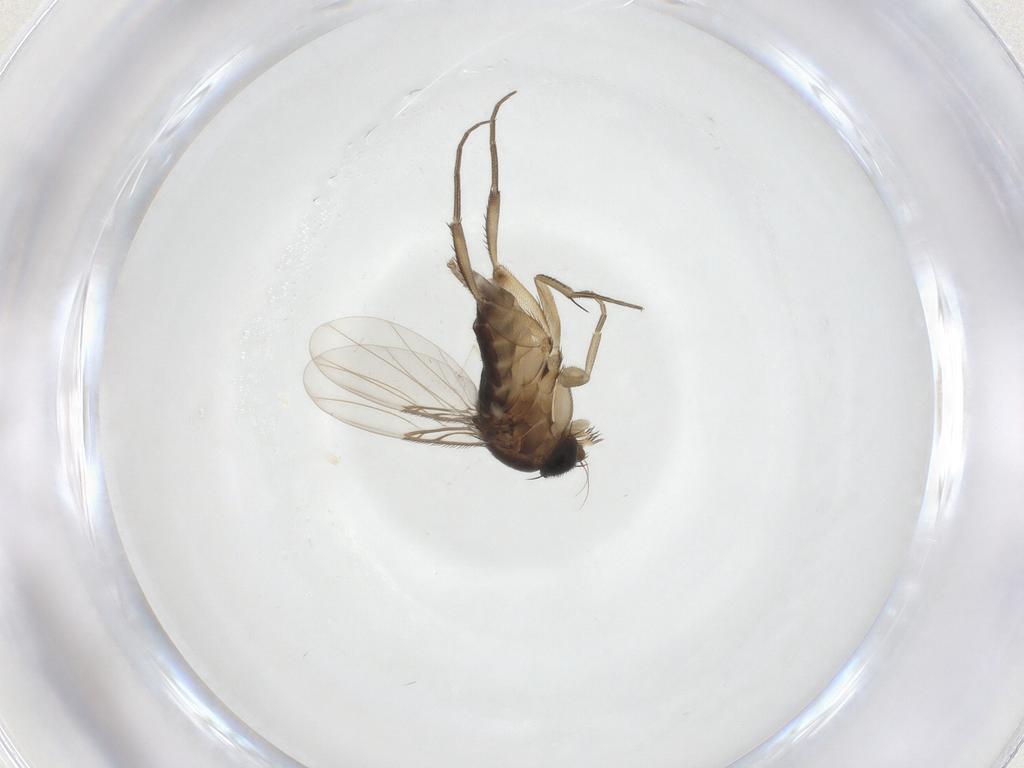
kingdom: Animalia
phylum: Arthropoda
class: Insecta
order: Diptera
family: Phoridae
